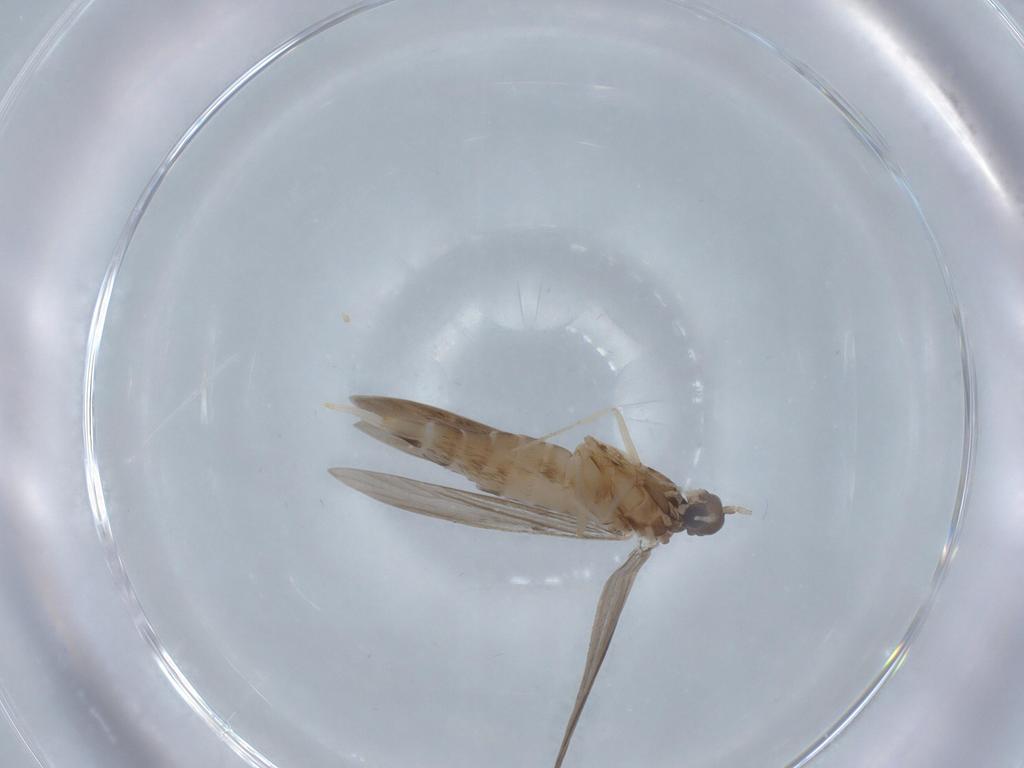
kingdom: Animalia
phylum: Arthropoda
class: Insecta
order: Trichoptera
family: Xiphocentronidae
